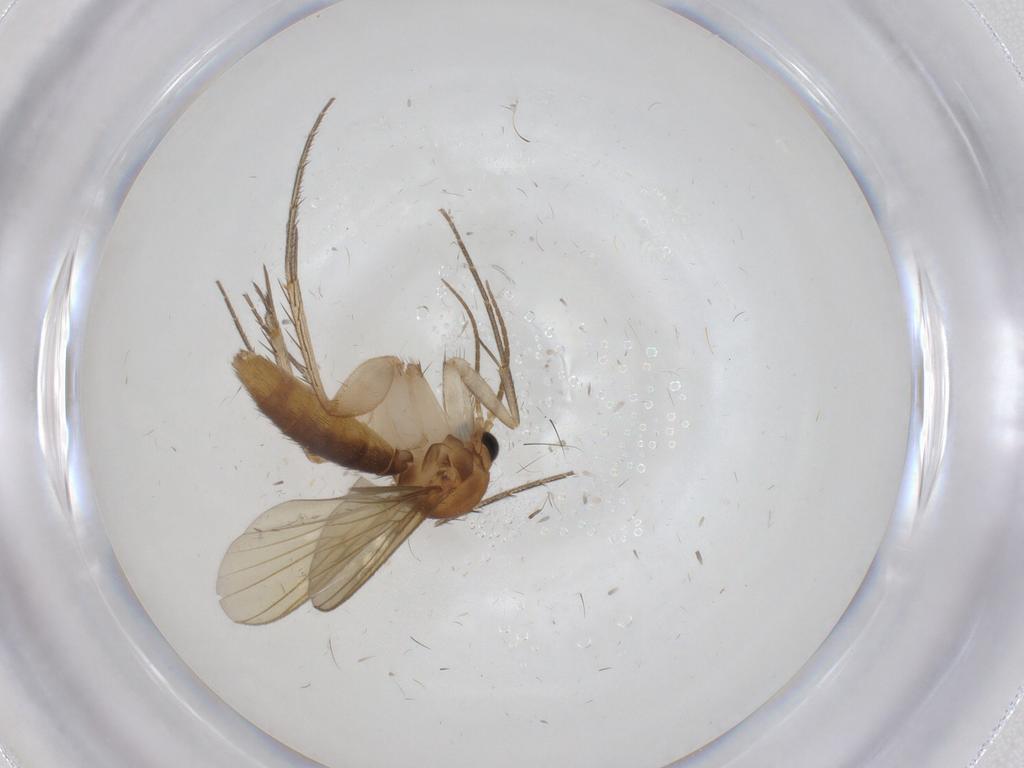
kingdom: Animalia
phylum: Arthropoda
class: Insecta
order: Diptera
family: Mycetophilidae
